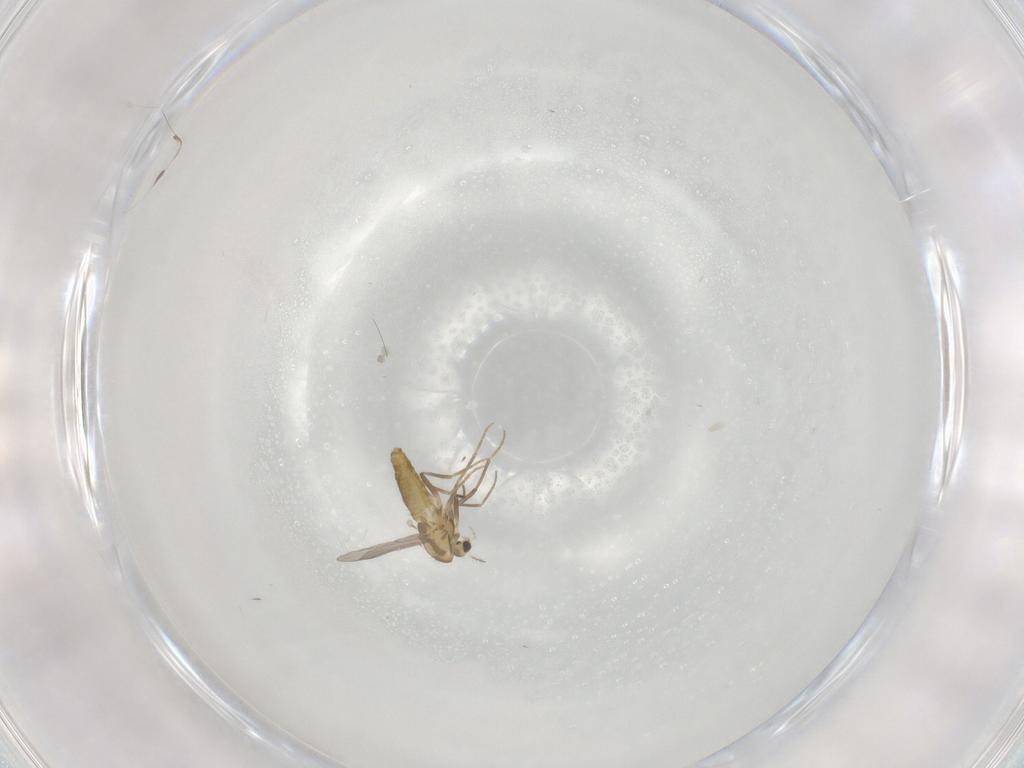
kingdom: Animalia
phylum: Arthropoda
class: Insecta
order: Diptera
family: Chironomidae
